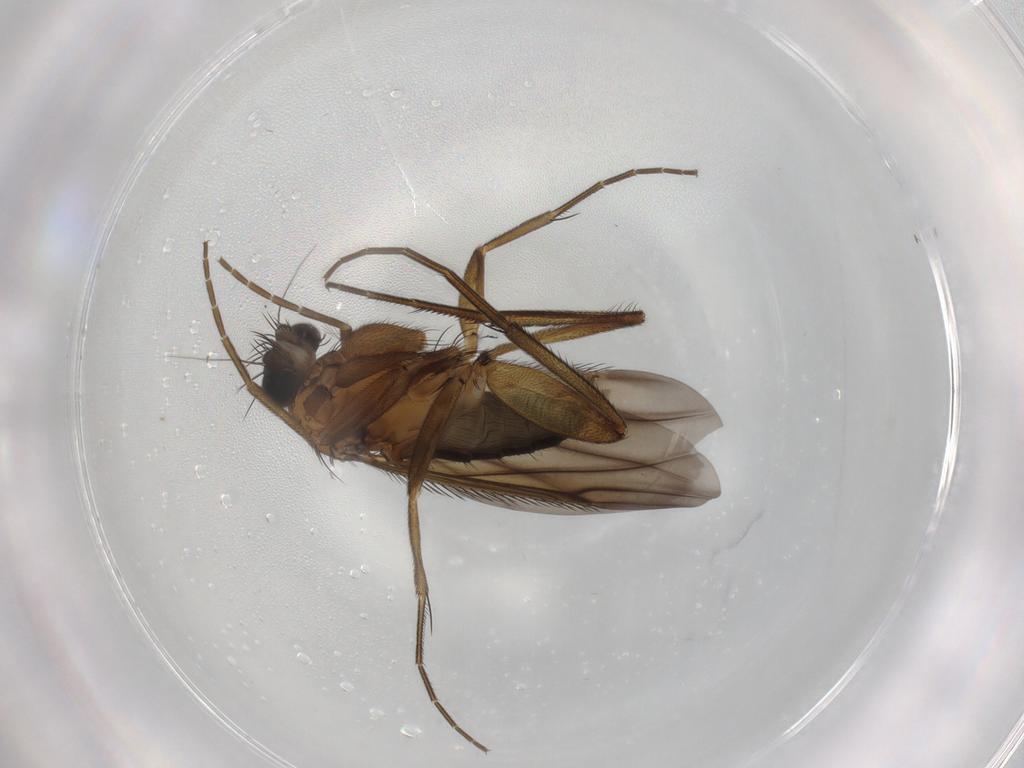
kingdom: Animalia
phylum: Arthropoda
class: Insecta
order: Diptera
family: Phoridae
